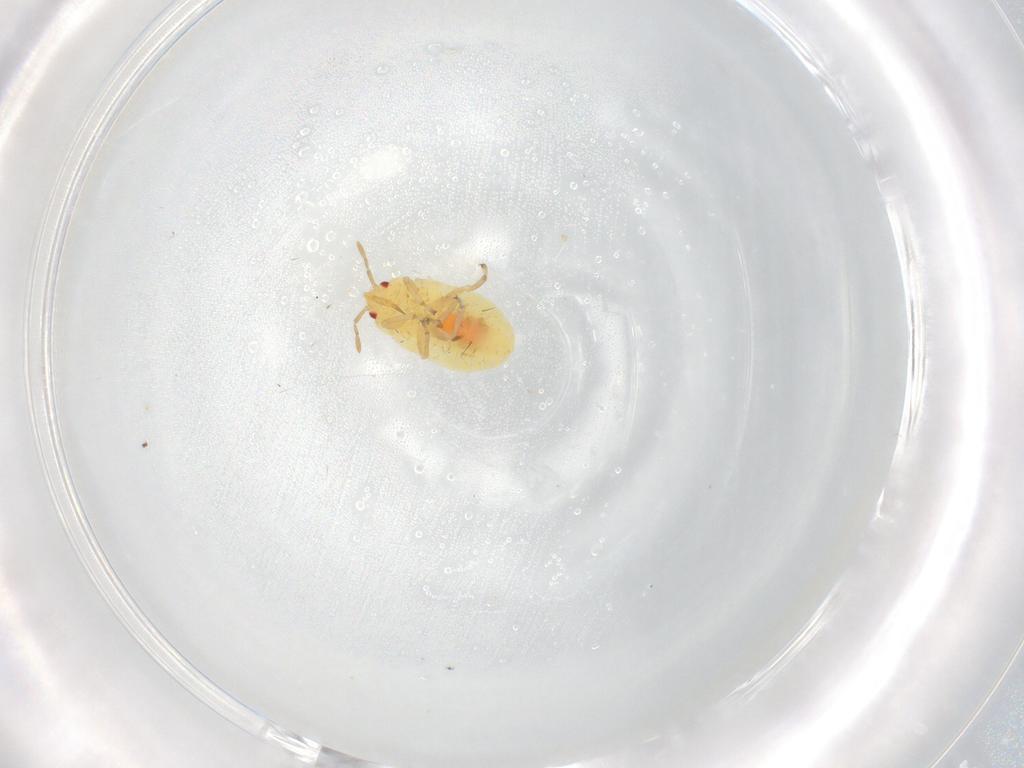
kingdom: Animalia
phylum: Arthropoda
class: Insecta
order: Hemiptera
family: Anthocoridae
